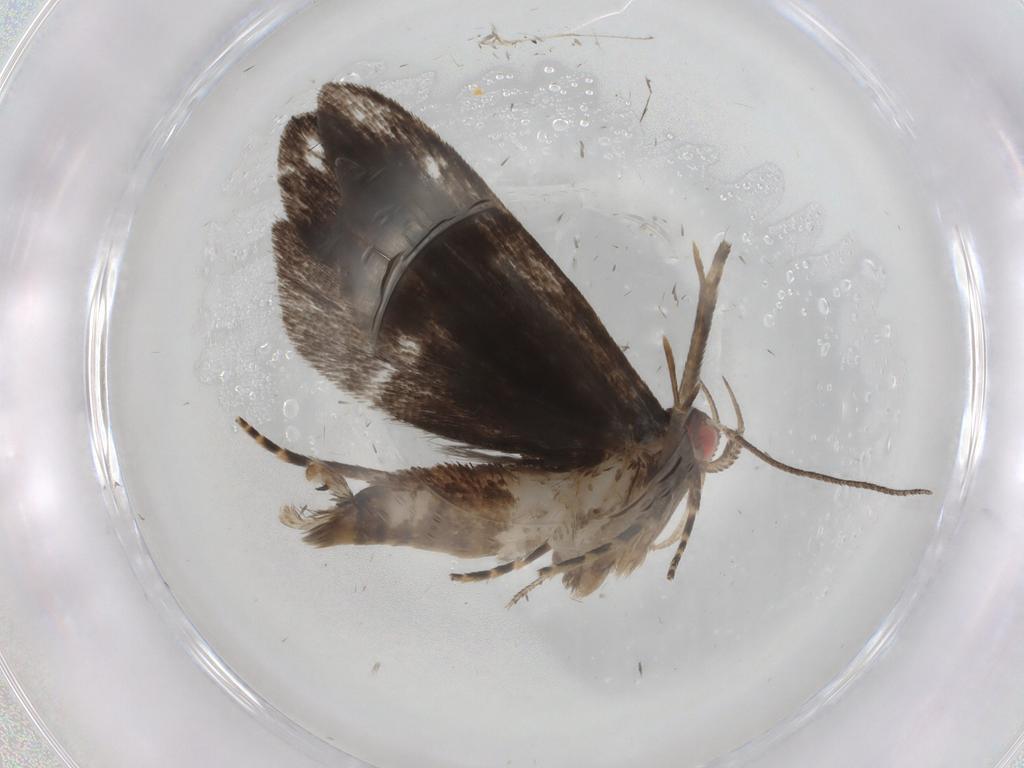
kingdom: Animalia
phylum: Arthropoda
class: Insecta
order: Lepidoptera
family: Gelechiidae
